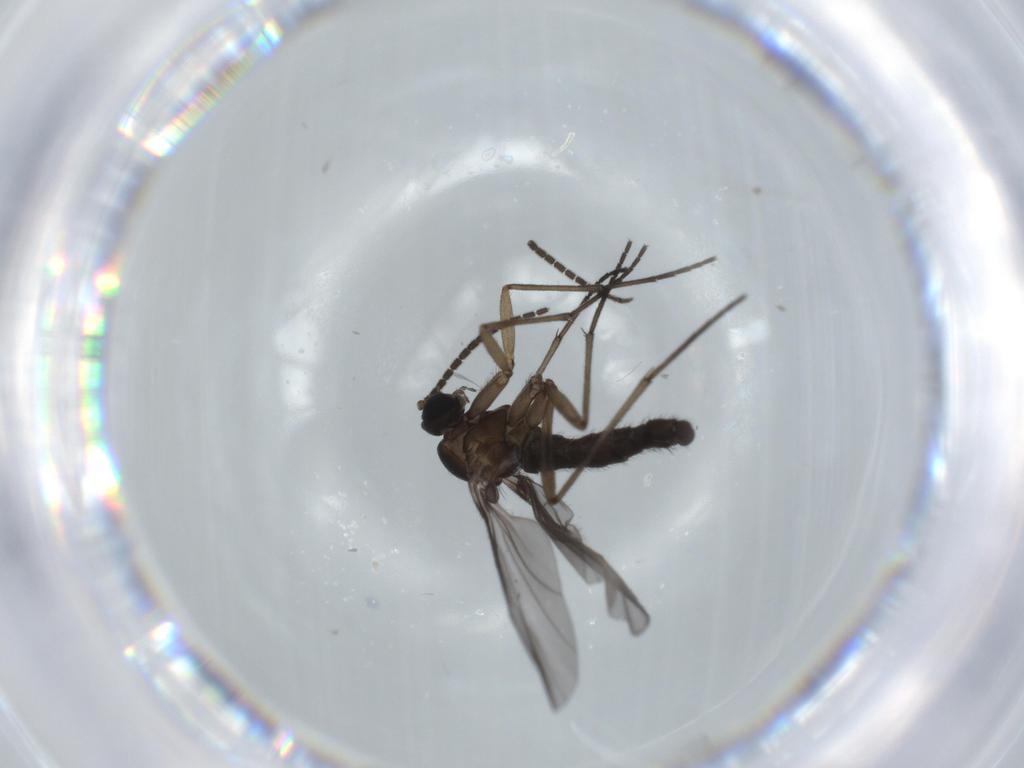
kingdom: Animalia
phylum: Arthropoda
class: Insecta
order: Diptera
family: Sciaridae
